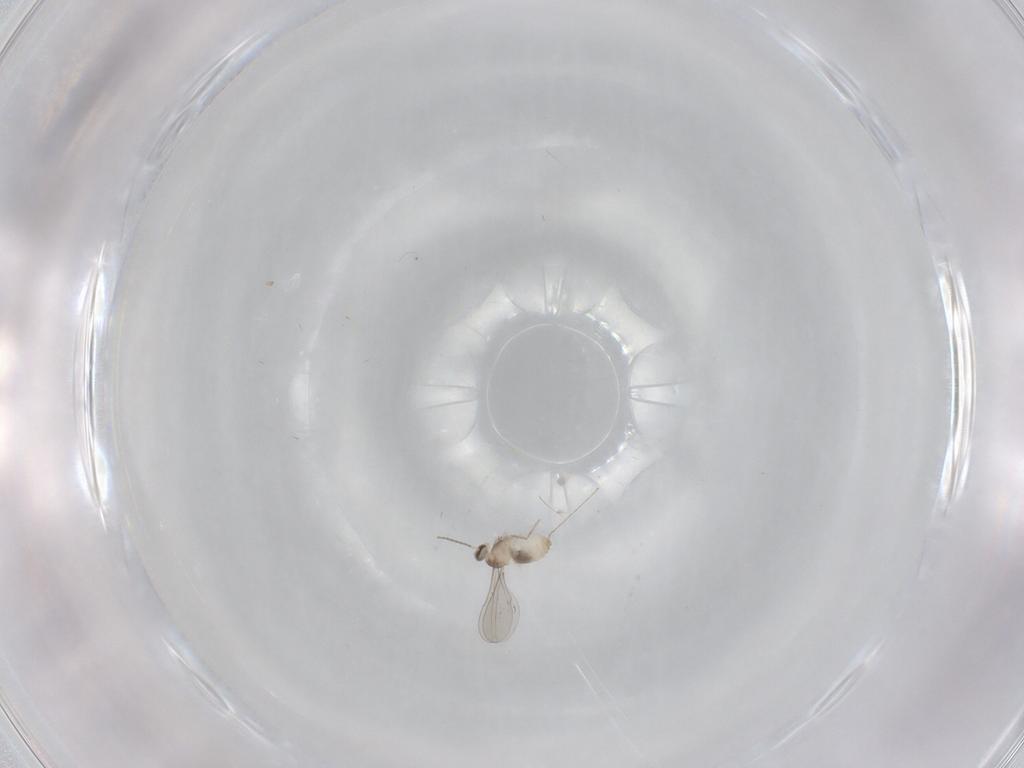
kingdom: Animalia
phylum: Arthropoda
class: Insecta
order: Diptera
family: Cecidomyiidae
